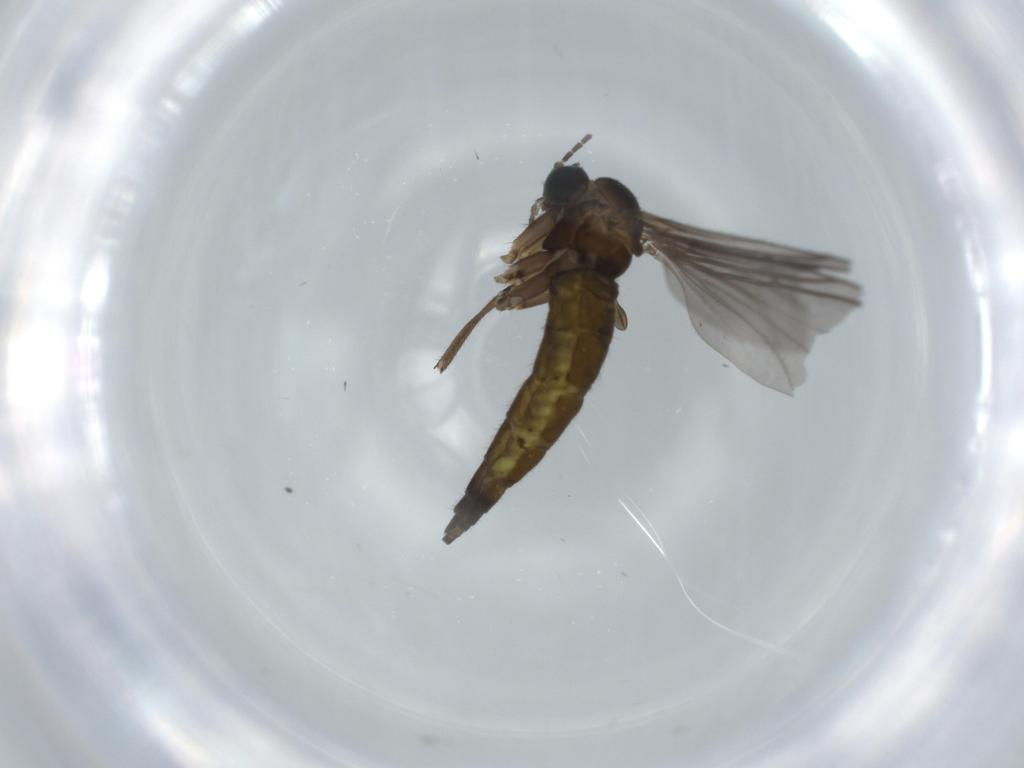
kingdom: Animalia
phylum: Arthropoda
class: Insecta
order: Diptera
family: Sciaridae
